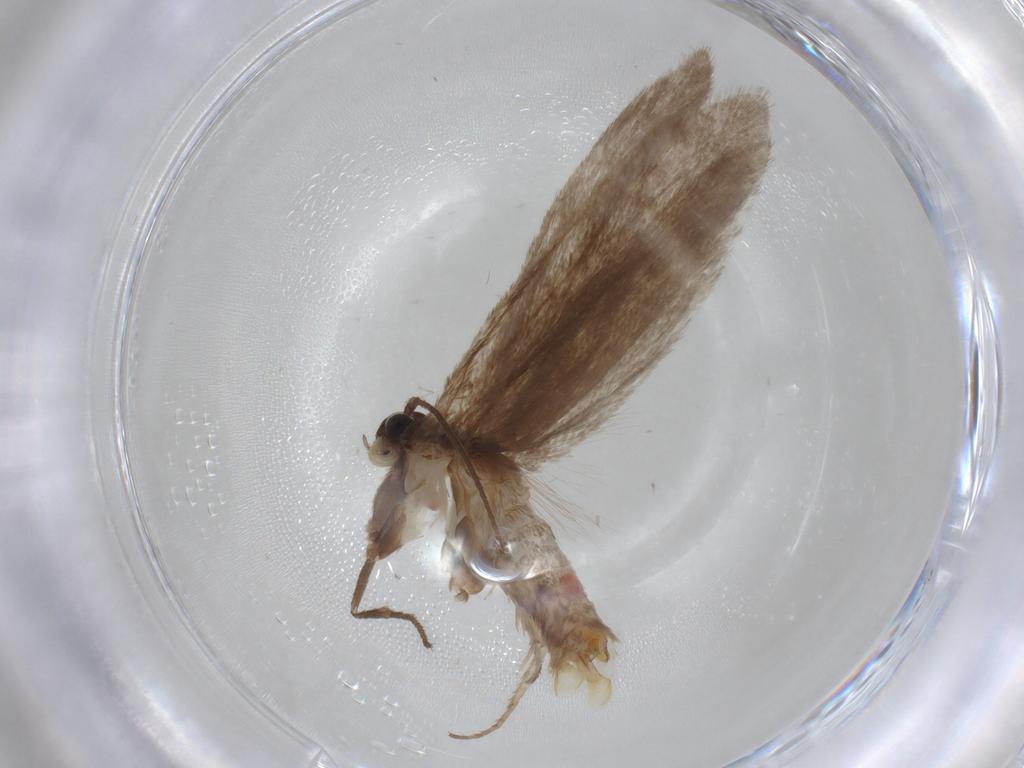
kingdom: Animalia
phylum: Arthropoda
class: Insecta
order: Lepidoptera
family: Limacodidae
